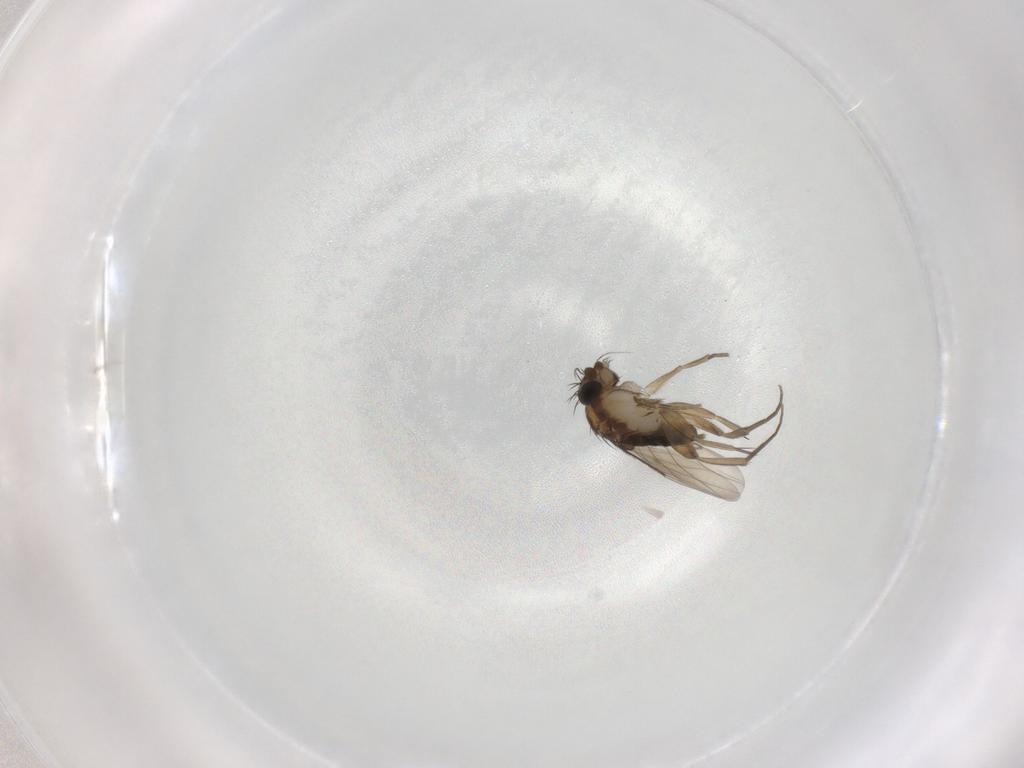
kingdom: Animalia
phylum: Arthropoda
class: Insecta
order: Diptera
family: Phoridae
